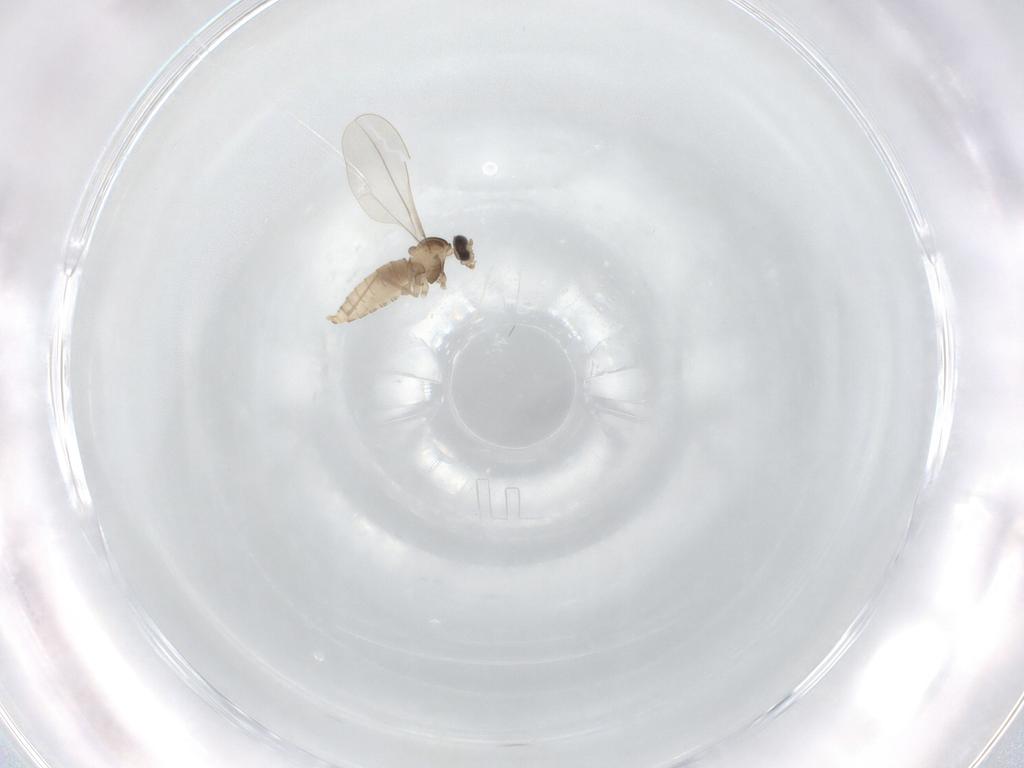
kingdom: Animalia
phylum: Arthropoda
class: Insecta
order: Diptera
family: Cecidomyiidae
